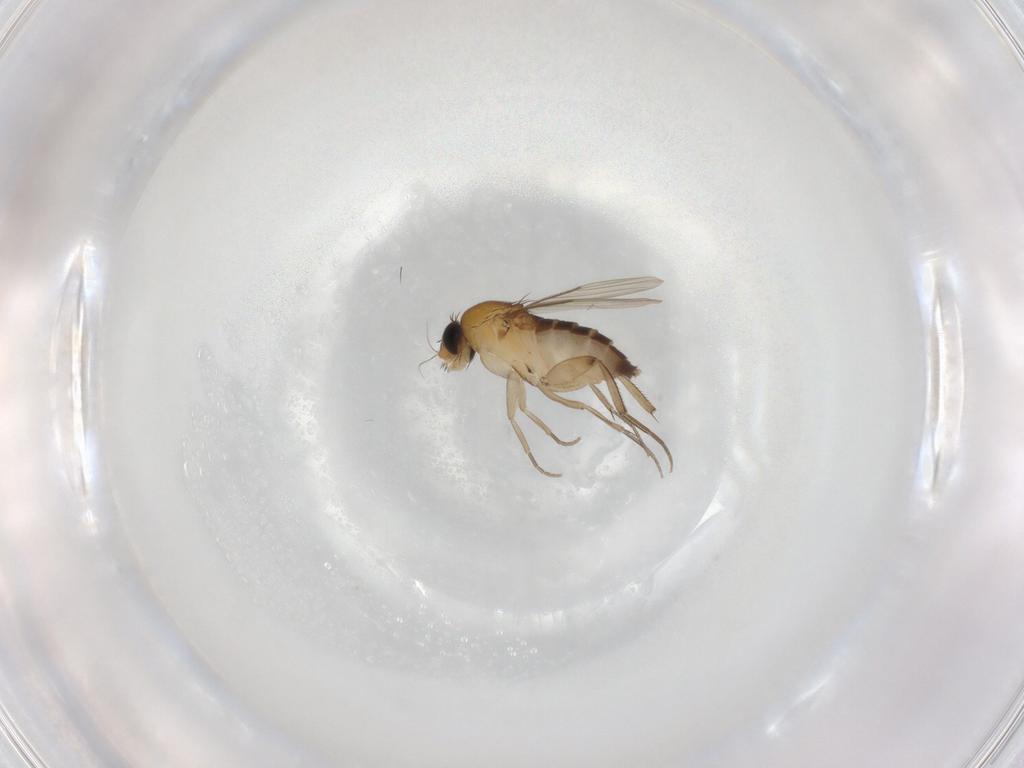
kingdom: Animalia
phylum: Arthropoda
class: Insecta
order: Diptera
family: Phoridae
